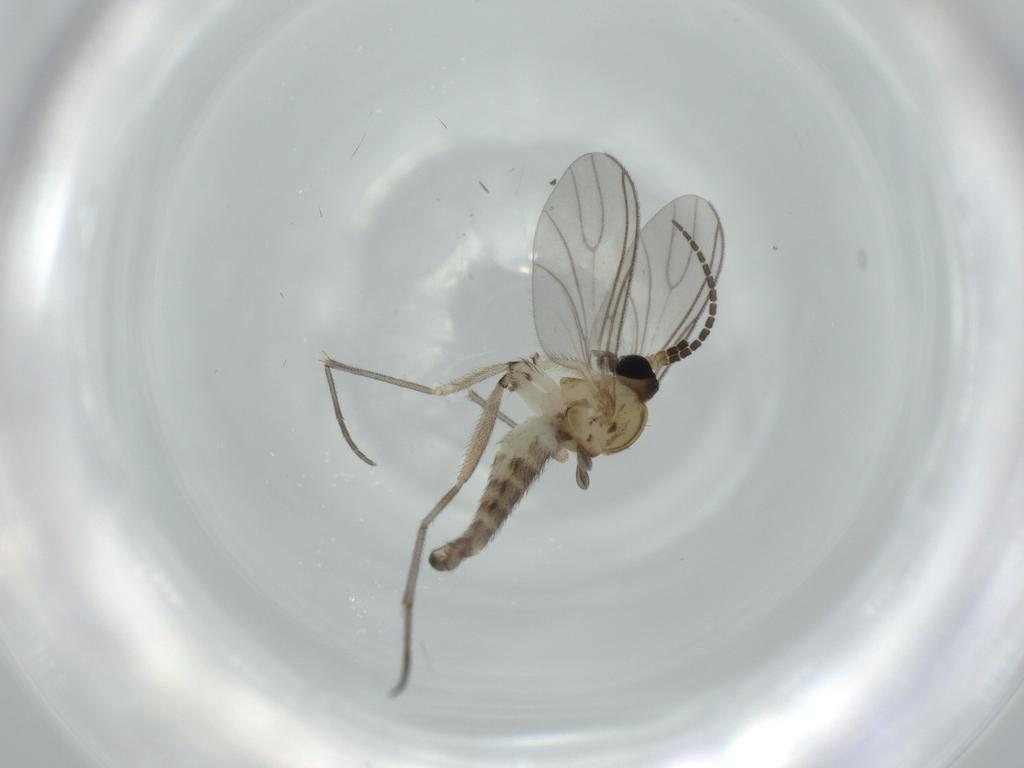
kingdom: Animalia
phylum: Arthropoda
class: Insecta
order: Diptera
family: Sciaridae
